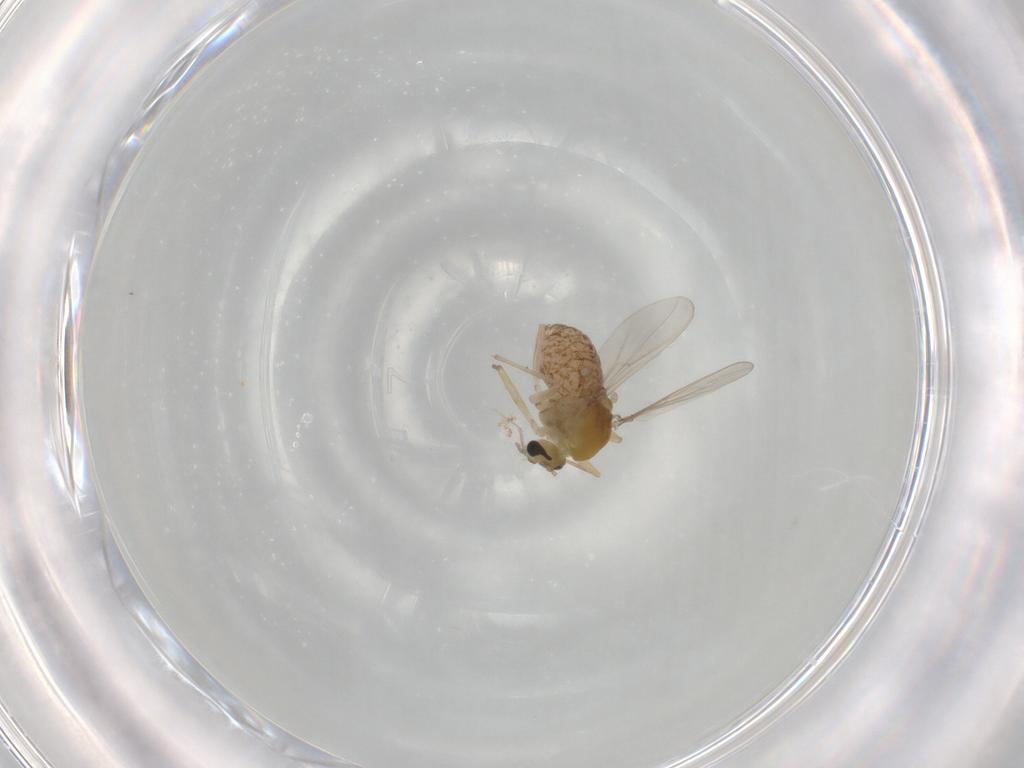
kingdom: Animalia
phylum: Arthropoda
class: Insecta
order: Diptera
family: Chironomidae
